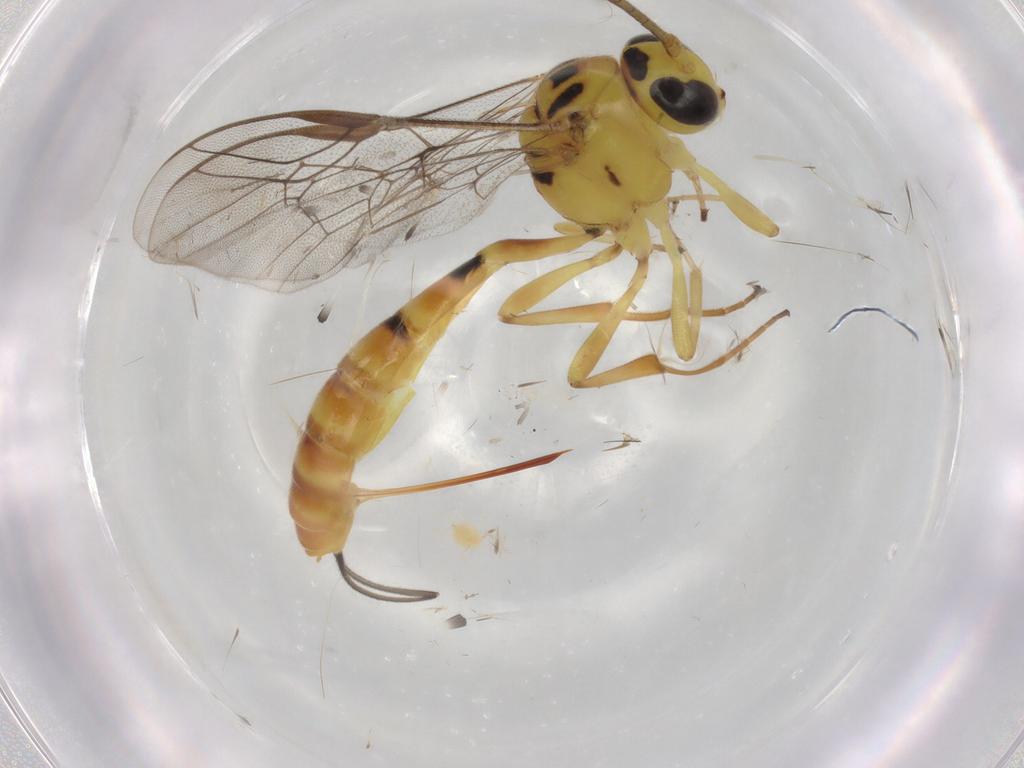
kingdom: Animalia
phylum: Arthropoda
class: Insecta
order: Hymenoptera
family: Ichneumonidae
